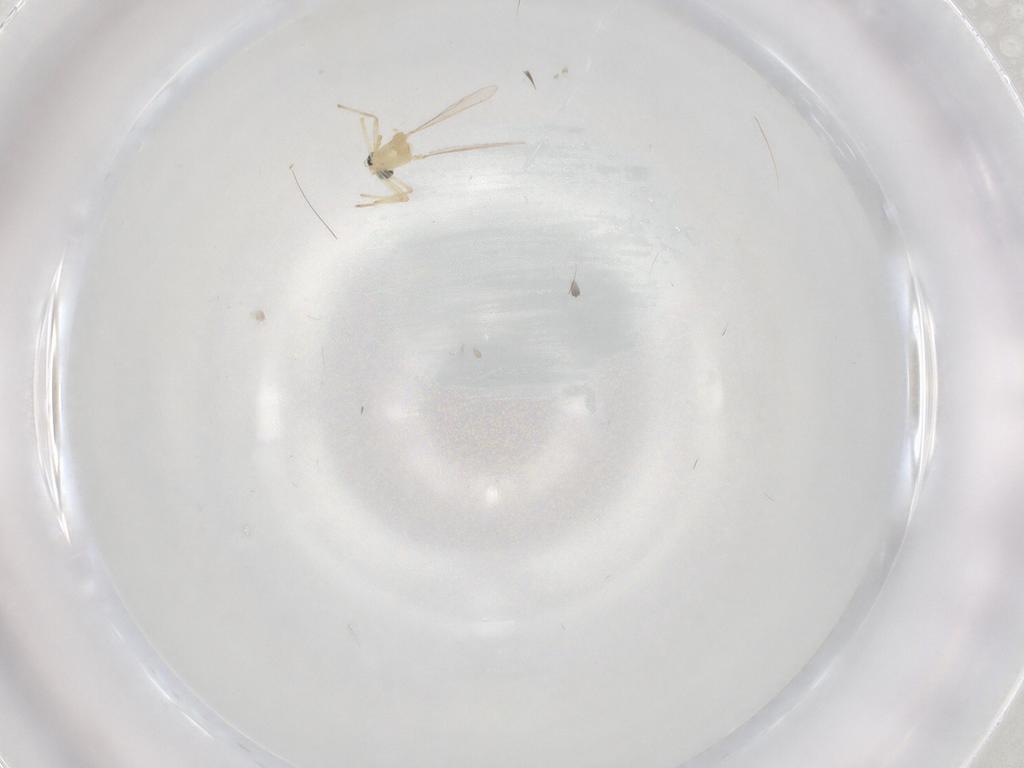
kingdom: Animalia
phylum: Arthropoda
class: Insecta
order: Diptera
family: Chironomidae
